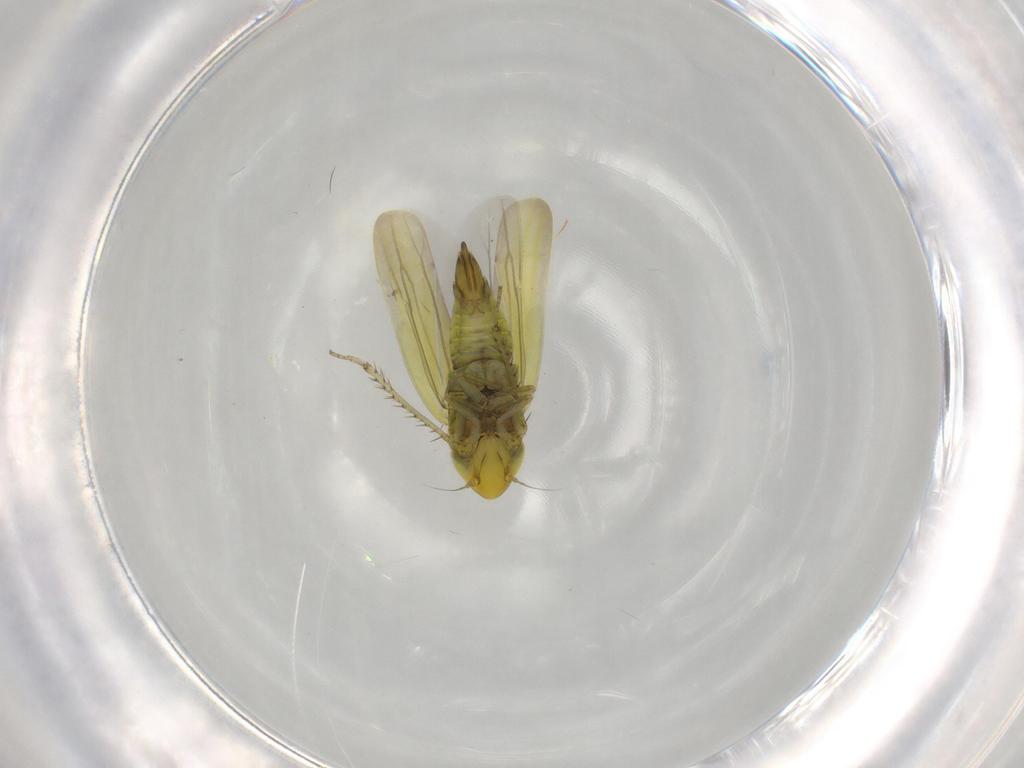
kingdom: Animalia
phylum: Arthropoda
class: Insecta
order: Hemiptera
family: Cicadellidae
